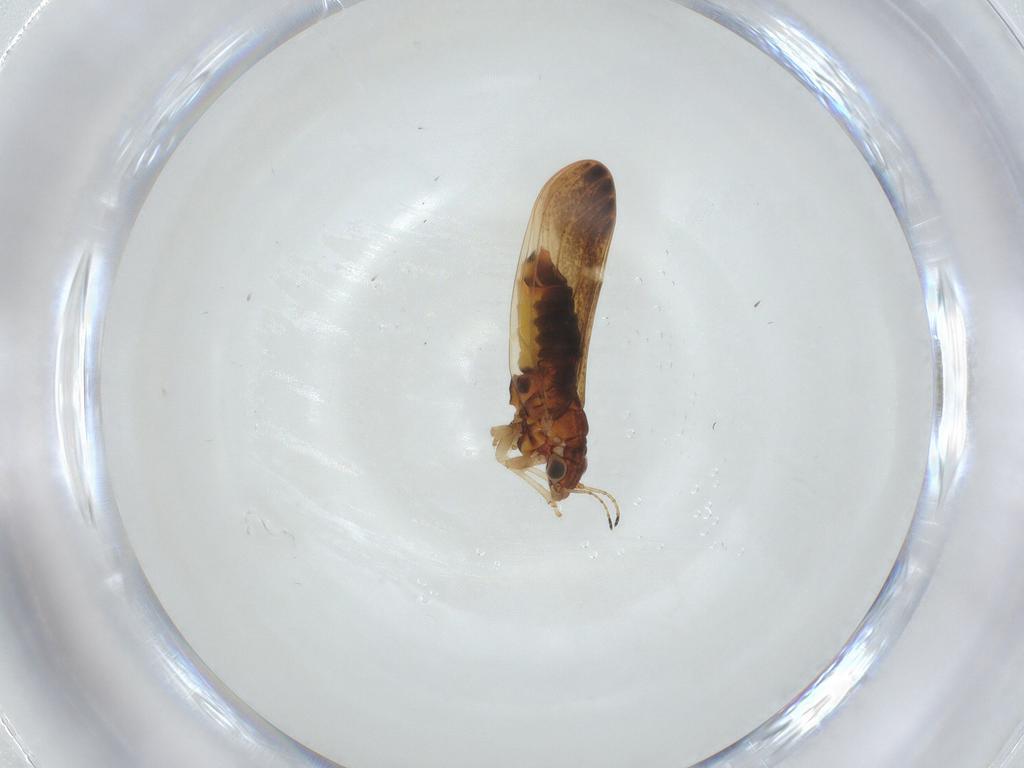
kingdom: Animalia
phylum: Arthropoda
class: Insecta
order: Hemiptera
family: Aphalaridae
